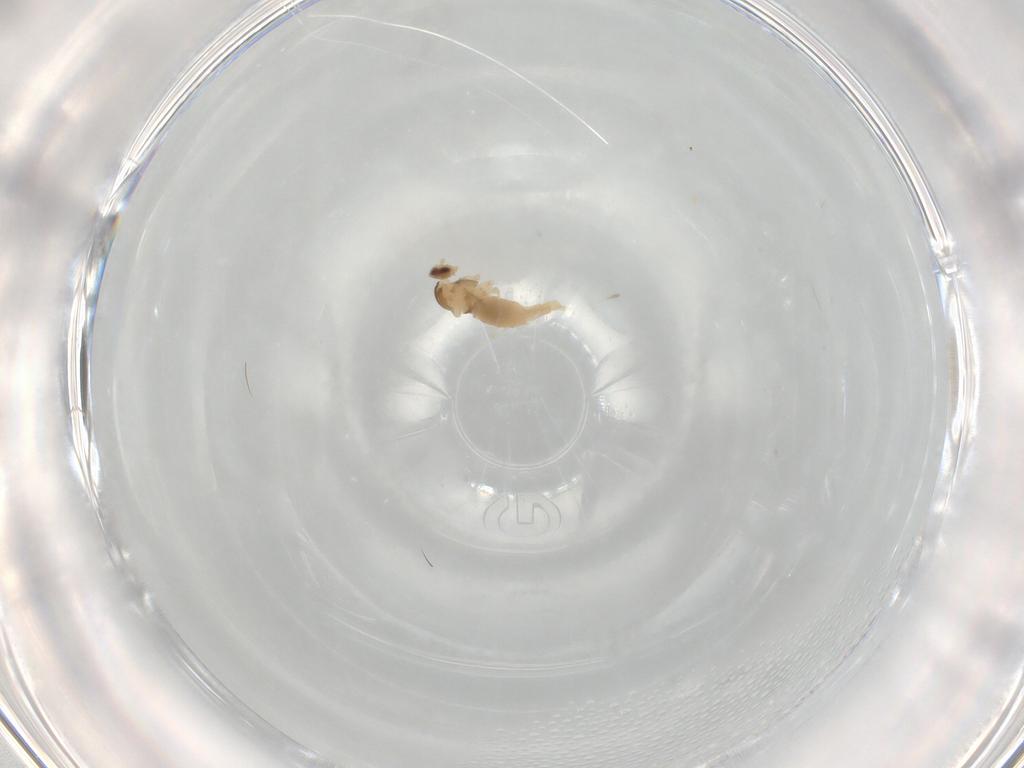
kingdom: Animalia
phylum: Arthropoda
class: Insecta
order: Diptera
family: Cecidomyiidae
